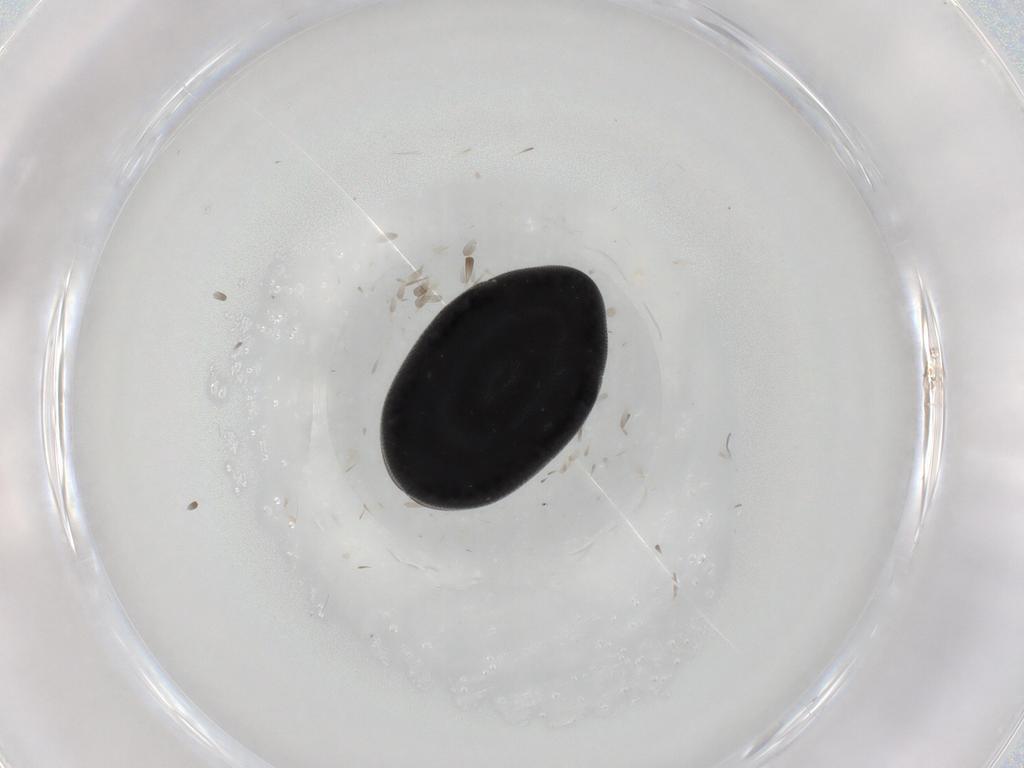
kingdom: Animalia
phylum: Arthropoda
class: Insecta
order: Coleoptera
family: Ptinidae
